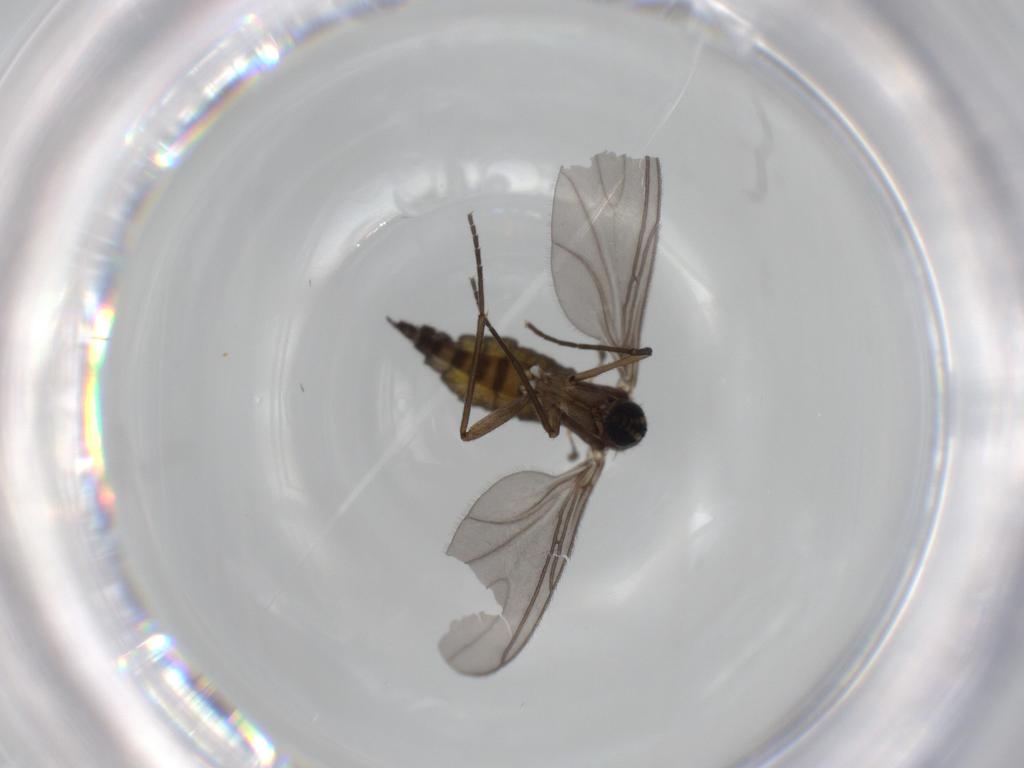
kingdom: Animalia
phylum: Arthropoda
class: Insecta
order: Diptera
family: Sciaridae
